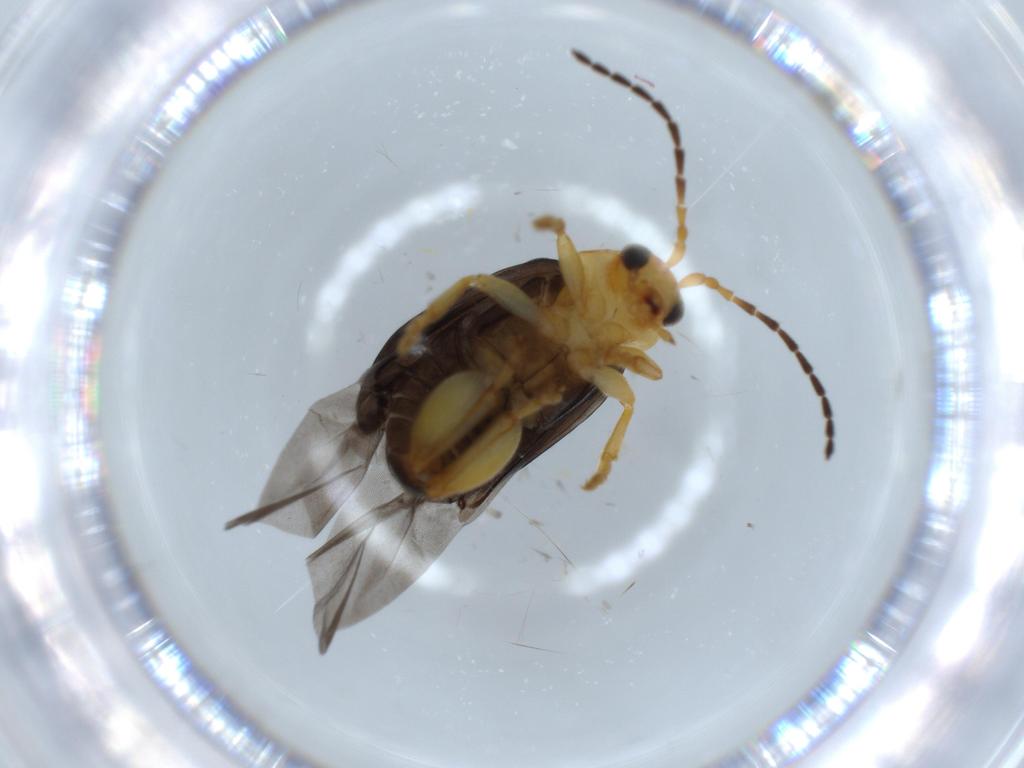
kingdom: Animalia
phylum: Arthropoda
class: Insecta
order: Coleoptera
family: Chrysomelidae
